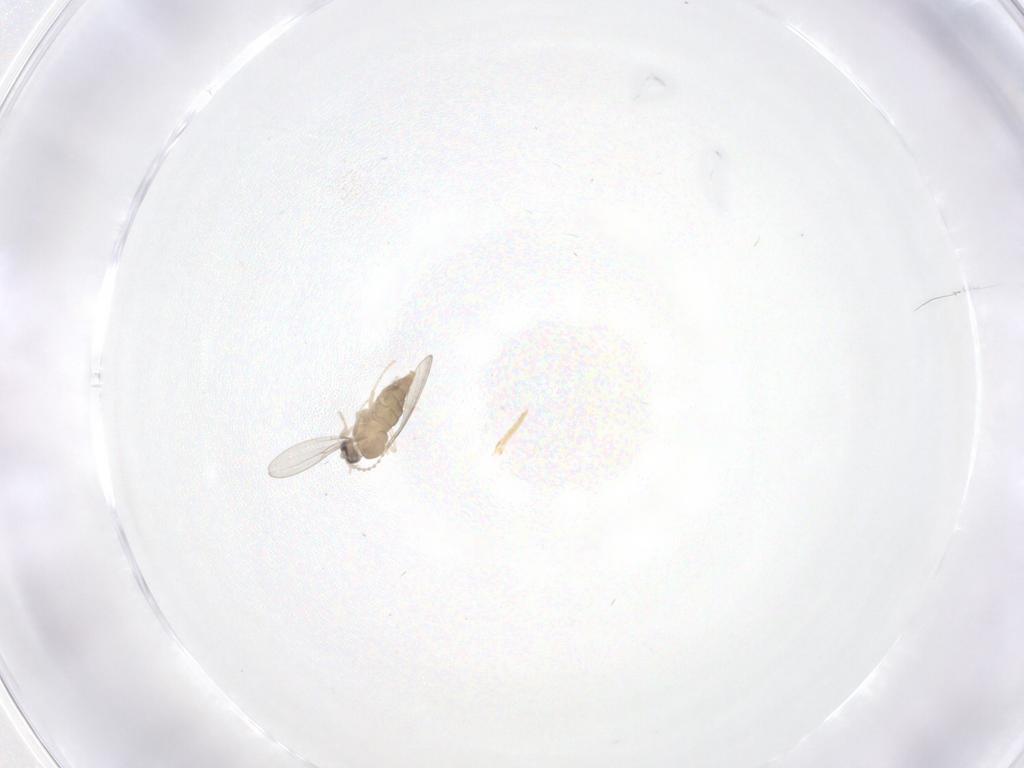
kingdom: Animalia
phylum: Arthropoda
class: Insecta
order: Diptera
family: Cecidomyiidae
